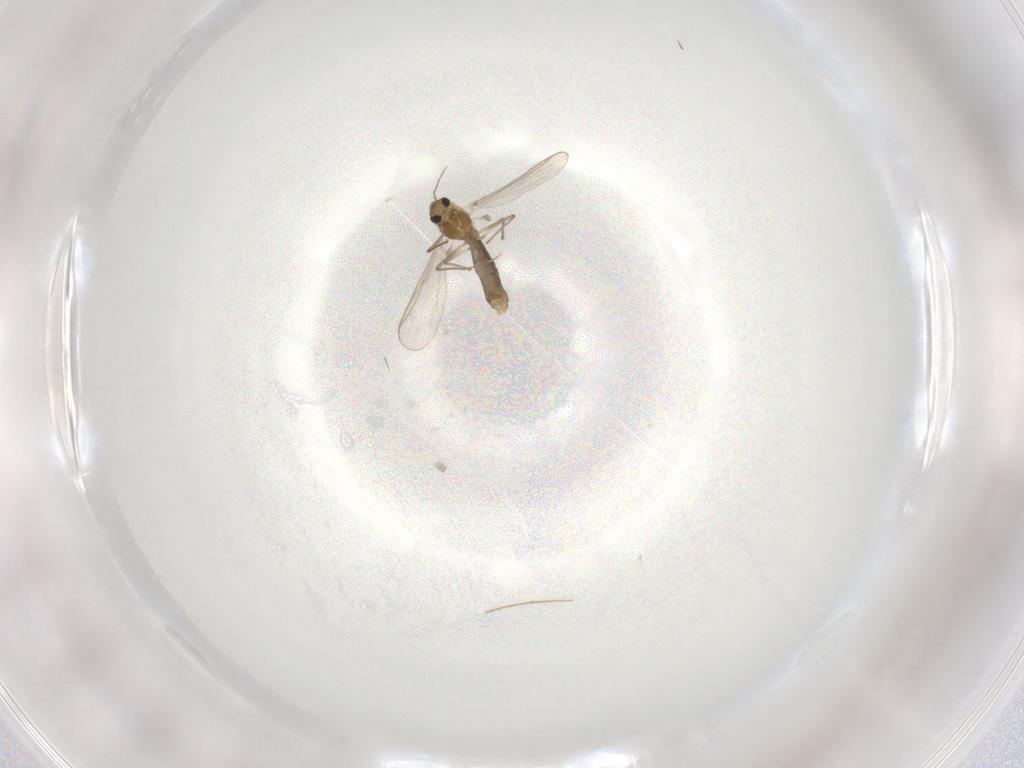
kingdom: Animalia
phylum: Arthropoda
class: Insecta
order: Diptera
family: Chironomidae
